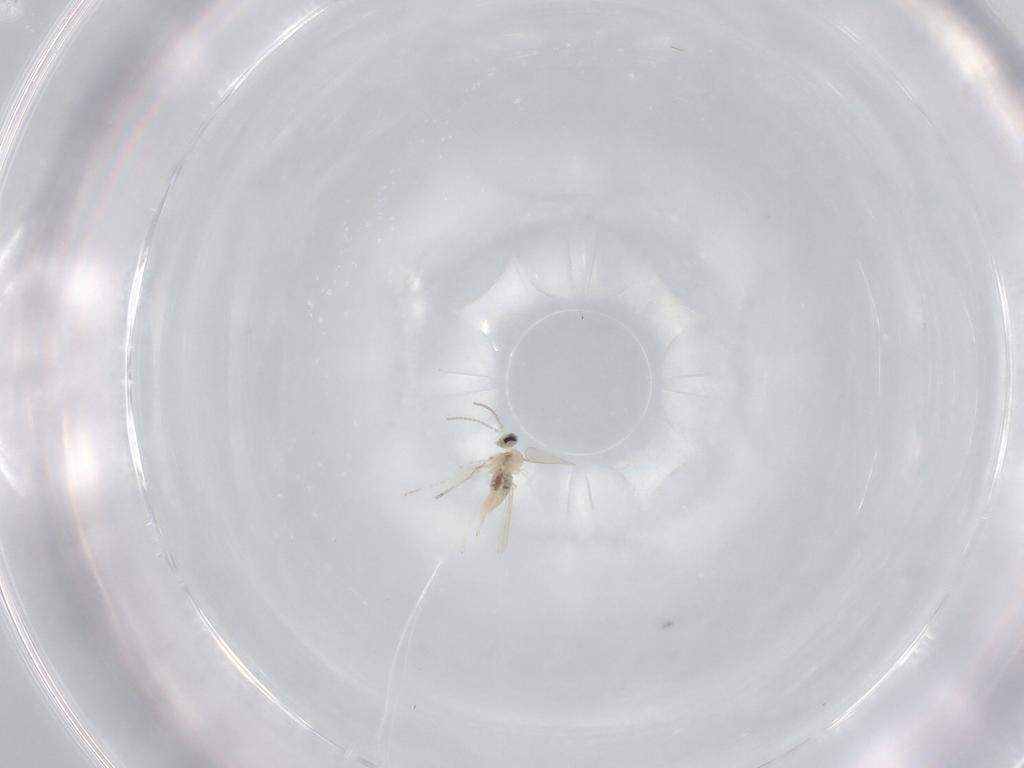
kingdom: Animalia
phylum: Arthropoda
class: Insecta
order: Diptera
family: Cecidomyiidae
